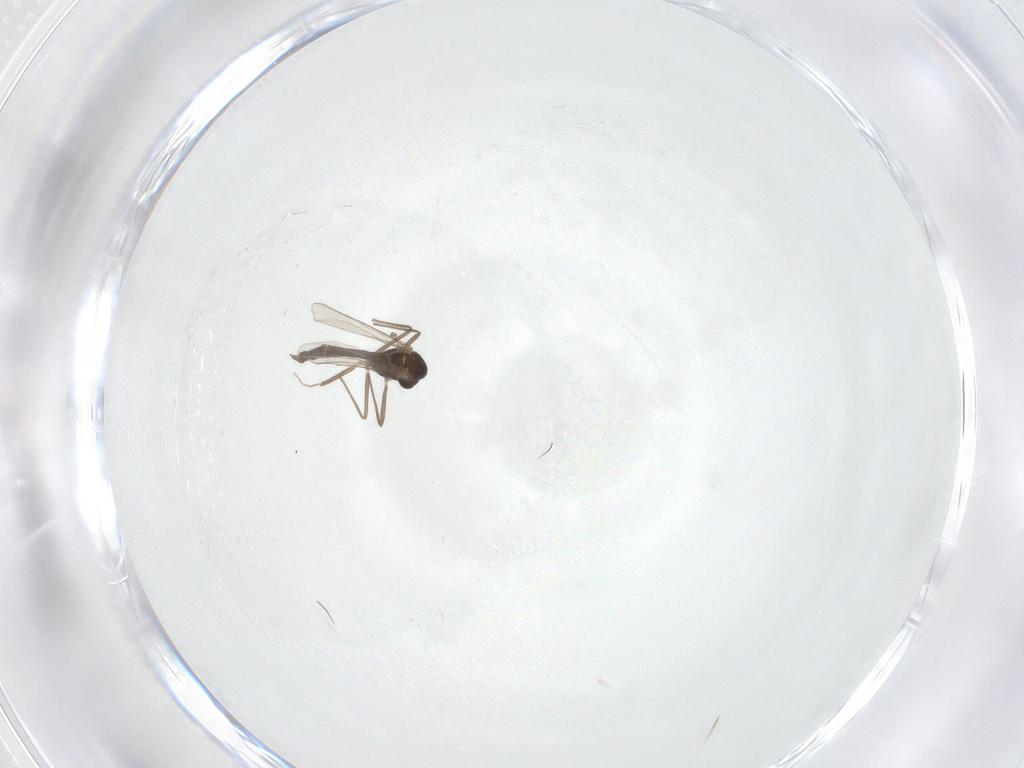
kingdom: Animalia
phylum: Arthropoda
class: Insecta
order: Diptera
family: Chironomidae
